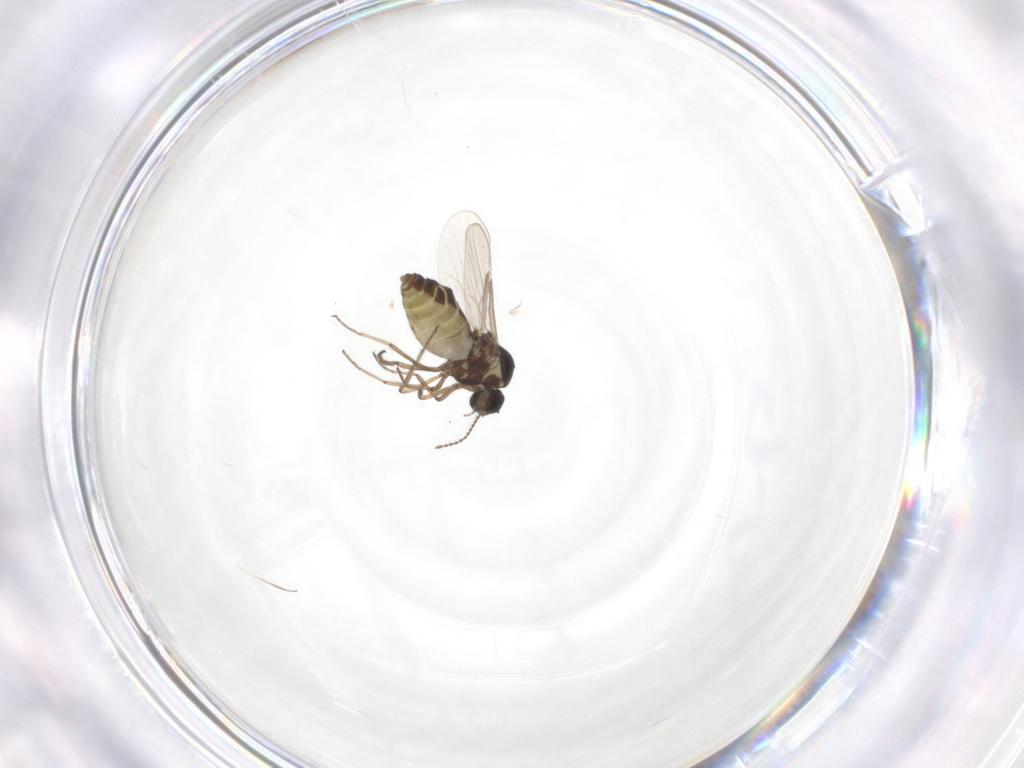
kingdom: Animalia
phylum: Arthropoda
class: Insecta
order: Diptera
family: Ceratopogonidae
